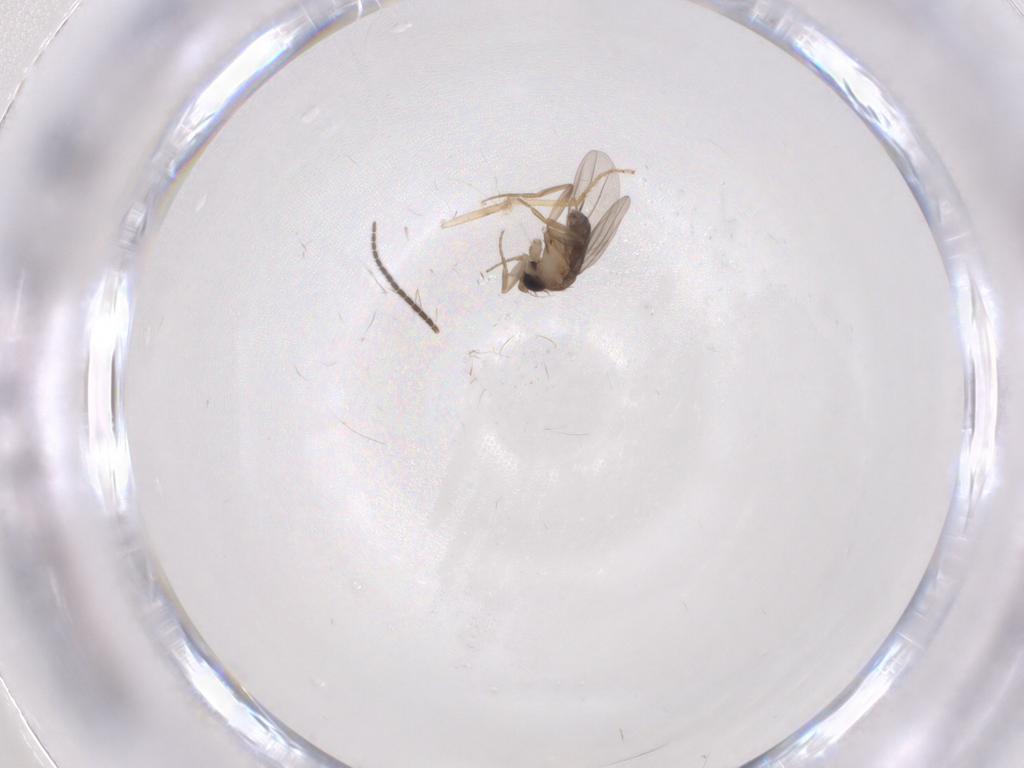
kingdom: Animalia
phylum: Arthropoda
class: Insecta
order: Diptera
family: Phoridae
